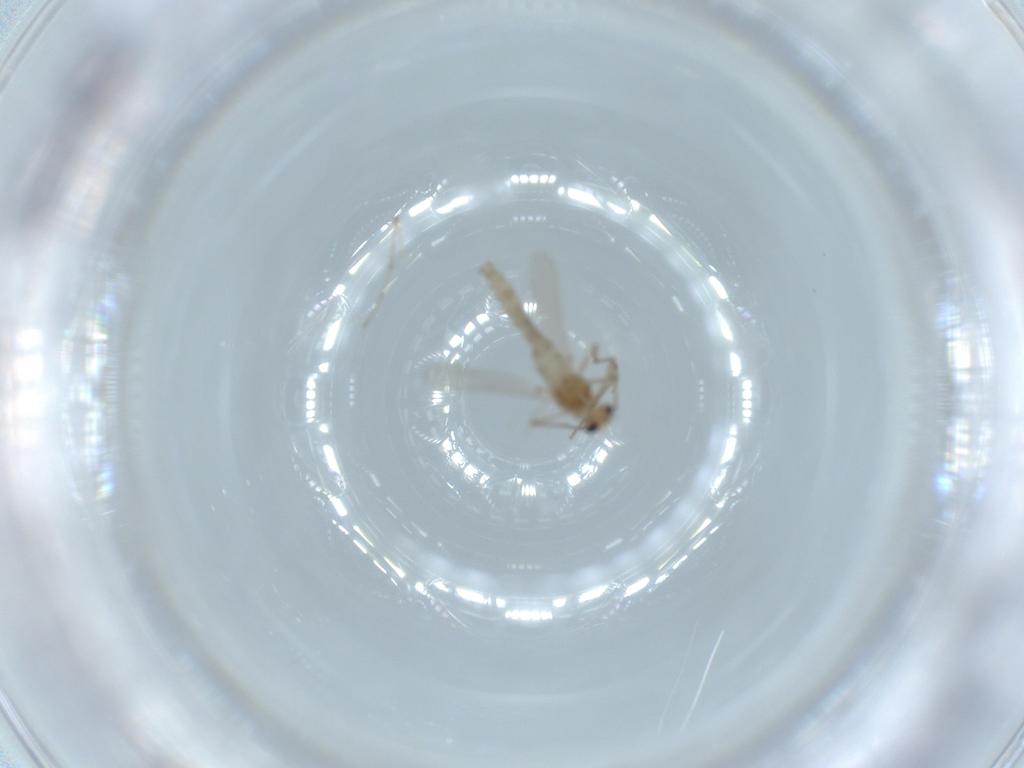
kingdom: Animalia
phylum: Arthropoda
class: Insecta
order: Diptera
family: Chironomidae
